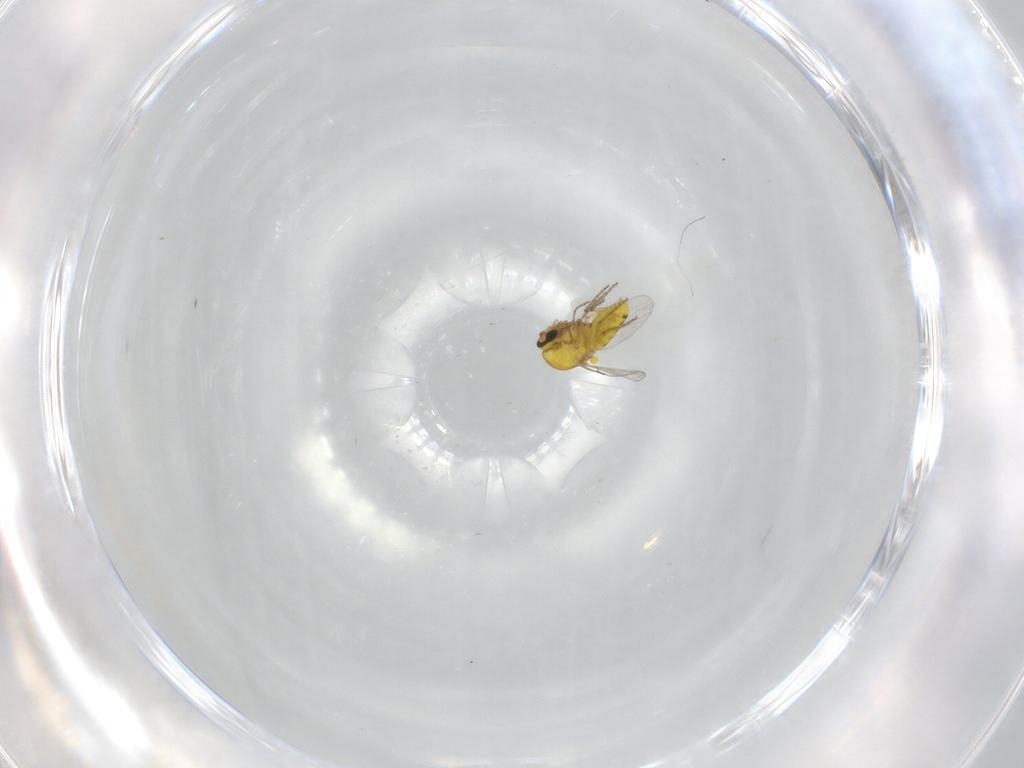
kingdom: Animalia
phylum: Arthropoda
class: Insecta
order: Diptera
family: Ceratopogonidae
